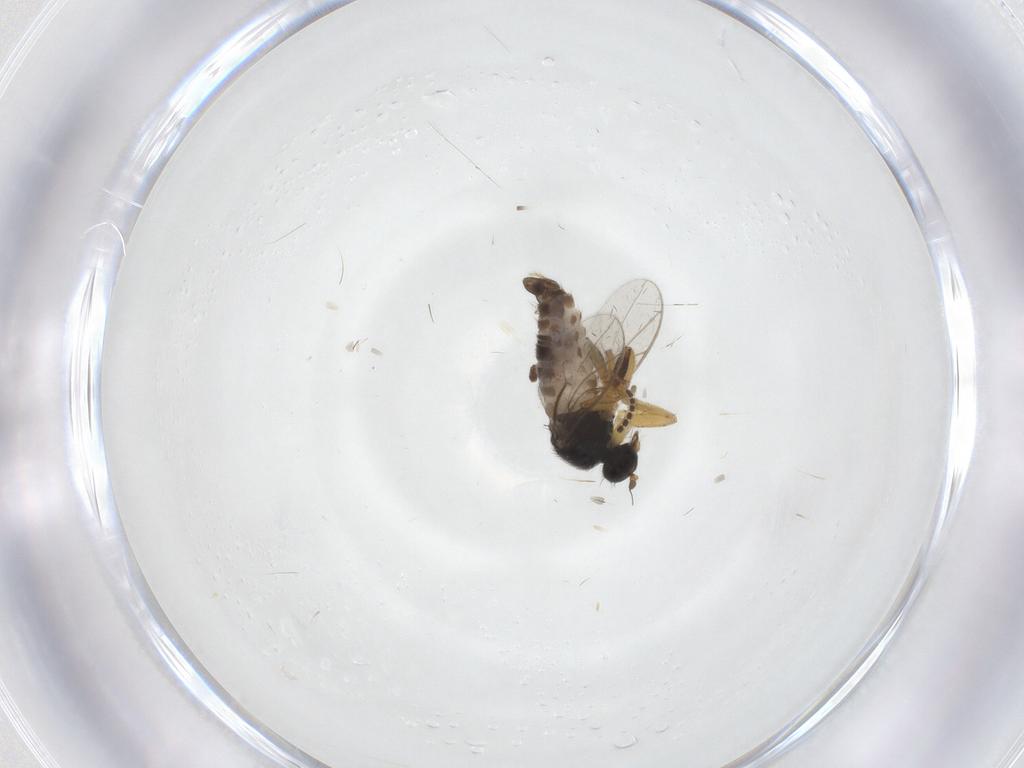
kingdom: Animalia
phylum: Arthropoda
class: Insecta
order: Diptera
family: Hybotidae
